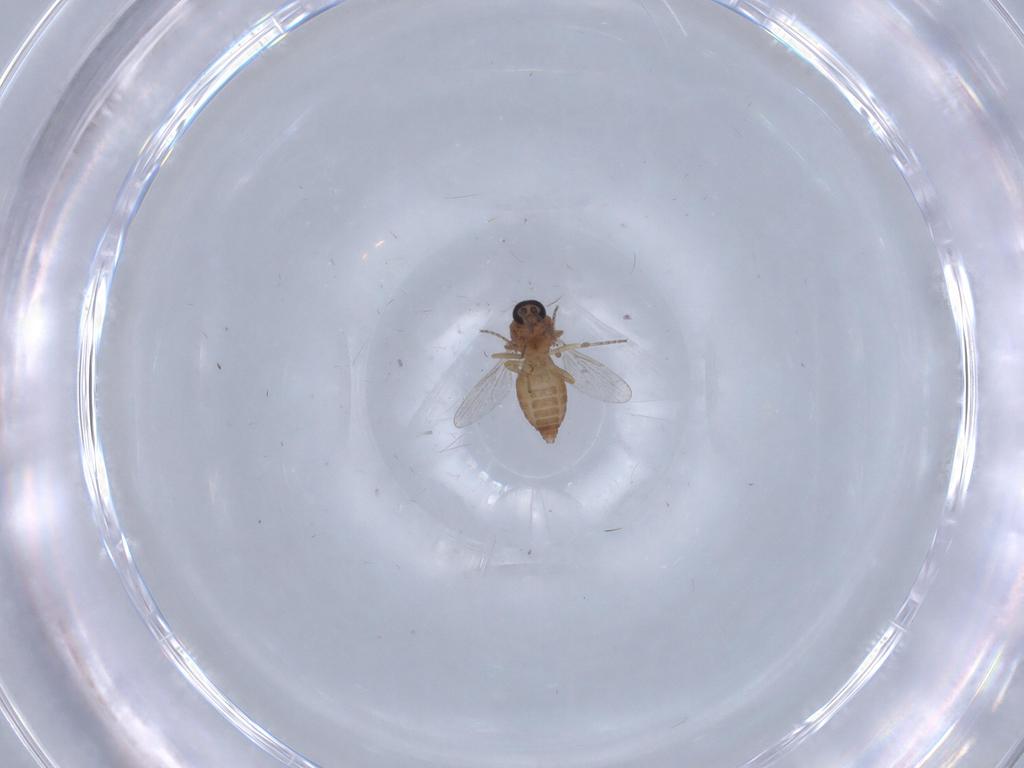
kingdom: Animalia
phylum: Arthropoda
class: Insecta
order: Diptera
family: Ceratopogonidae
